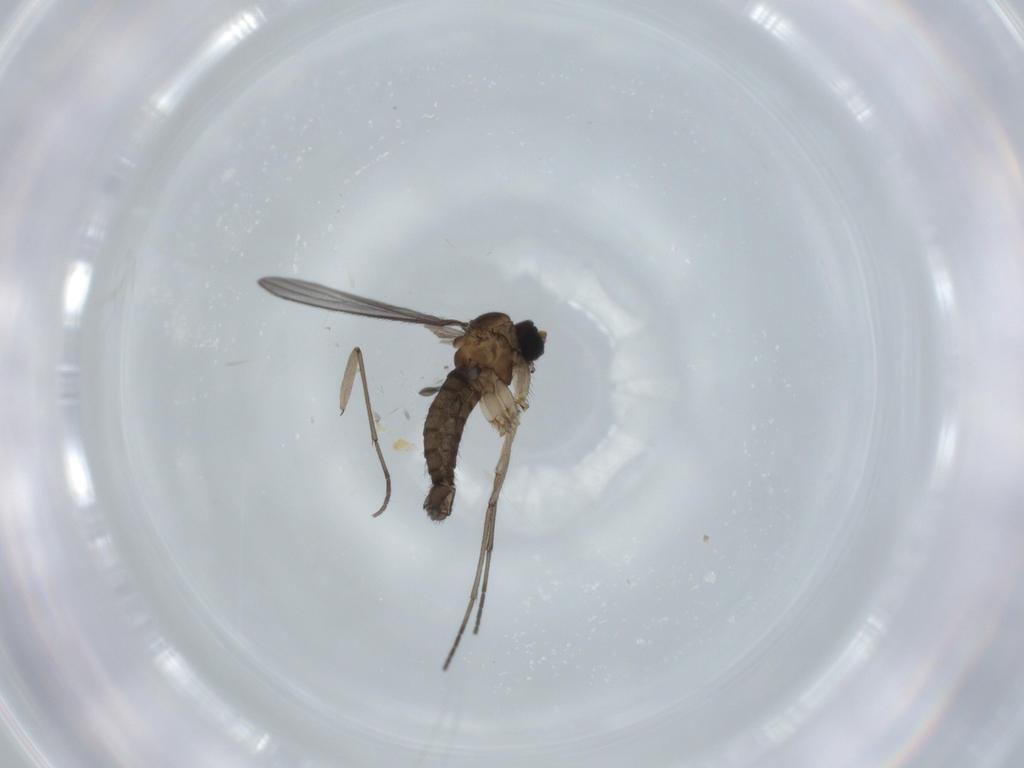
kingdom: Animalia
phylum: Arthropoda
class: Insecta
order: Diptera
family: Sciaridae
